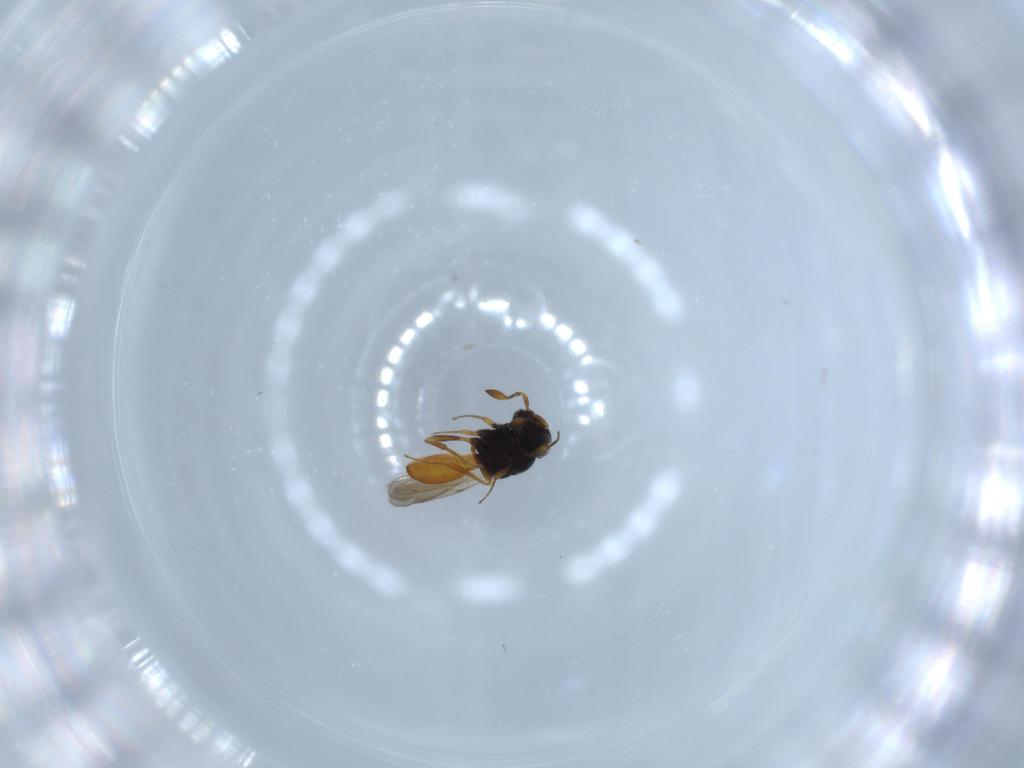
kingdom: Animalia
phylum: Arthropoda
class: Insecta
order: Hymenoptera
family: Scelionidae
